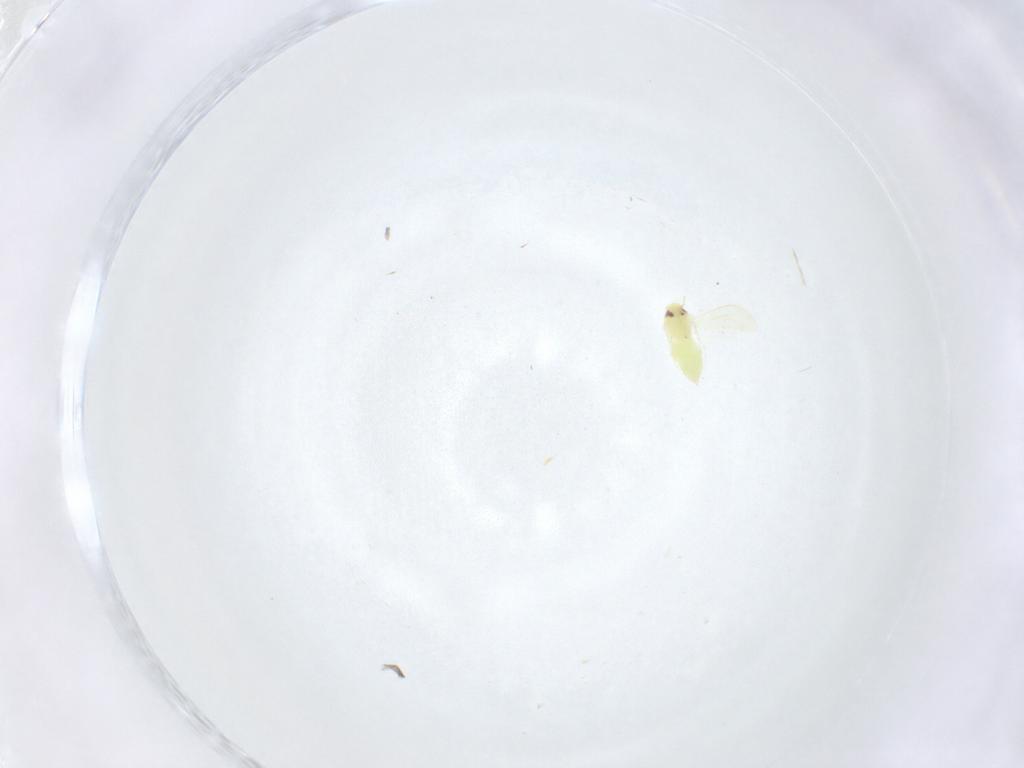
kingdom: Animalia
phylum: Arthropoda
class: Insecta
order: Hemiptera
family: Aleyrodidae
